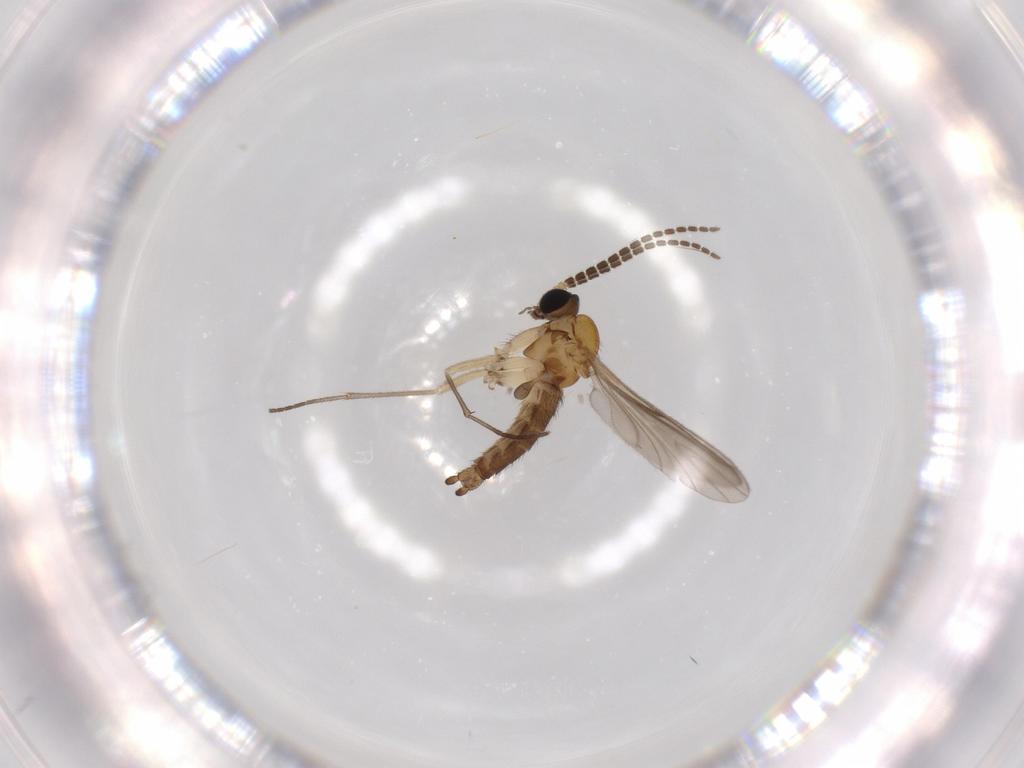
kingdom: Animalia
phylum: Arthropoda
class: Insecta
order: Diptera
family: Sciaridae
